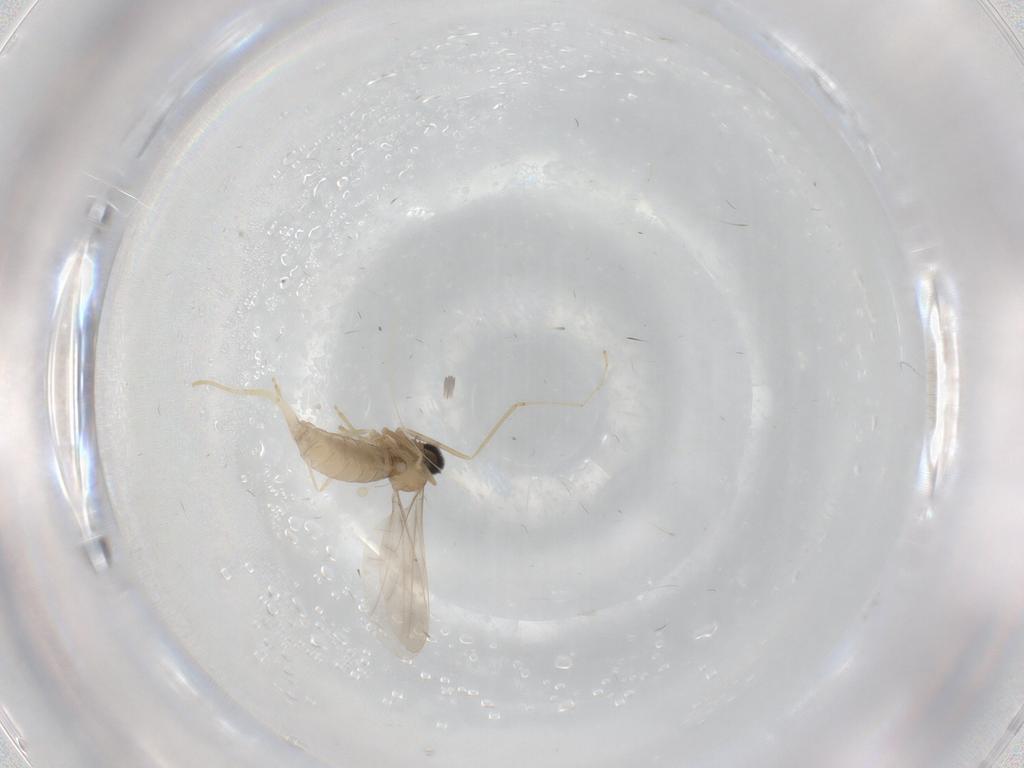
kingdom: Animalia
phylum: Arthropoda
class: Insecta
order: Diptera
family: Cecidomyiidae
